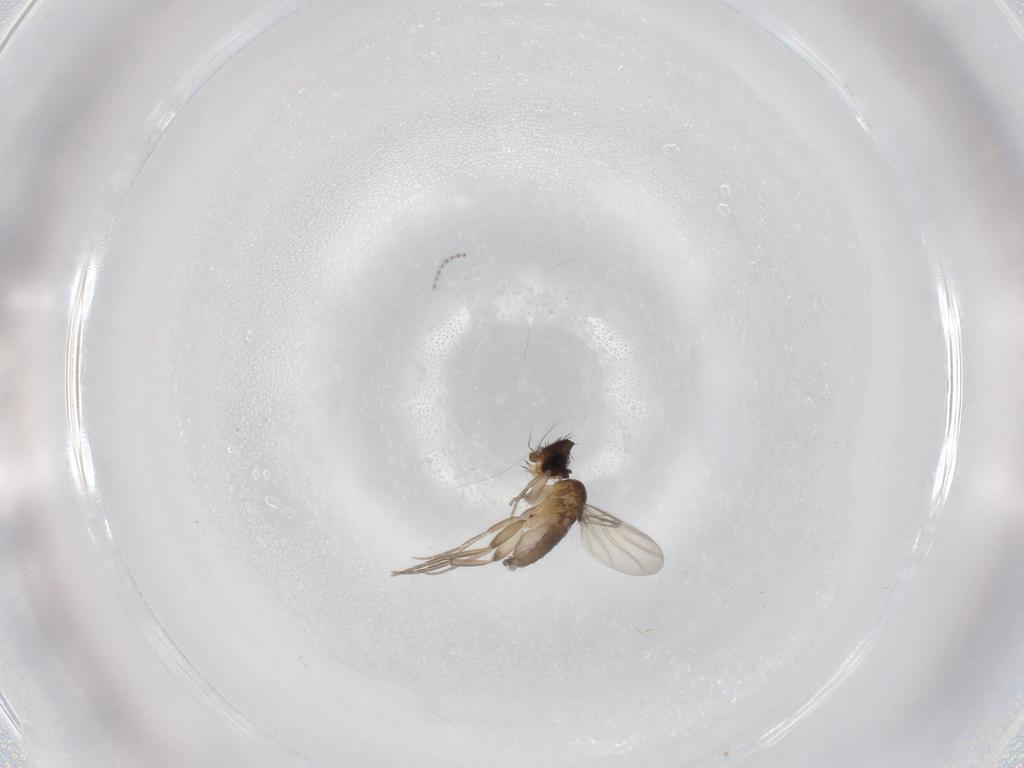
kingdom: Animalia
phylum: Arthropoda
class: Insecta
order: Diptera
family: Phoridae
